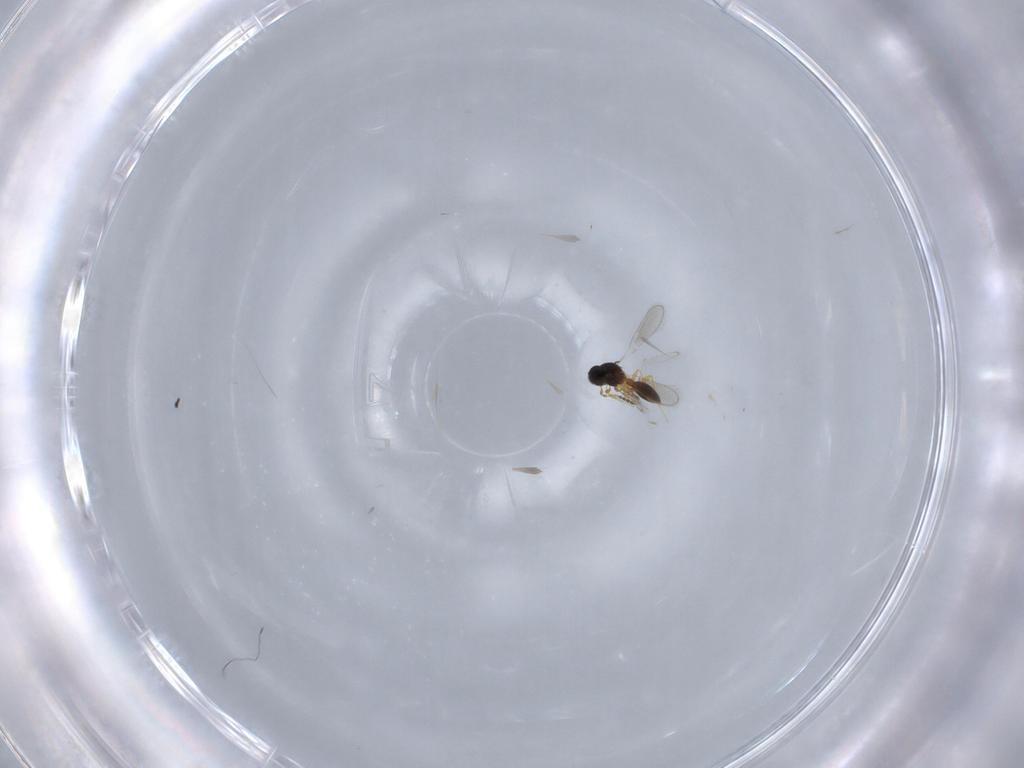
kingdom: Animalia
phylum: Arthropoda
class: Insecta
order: Hymenoptera
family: Platygastridae
